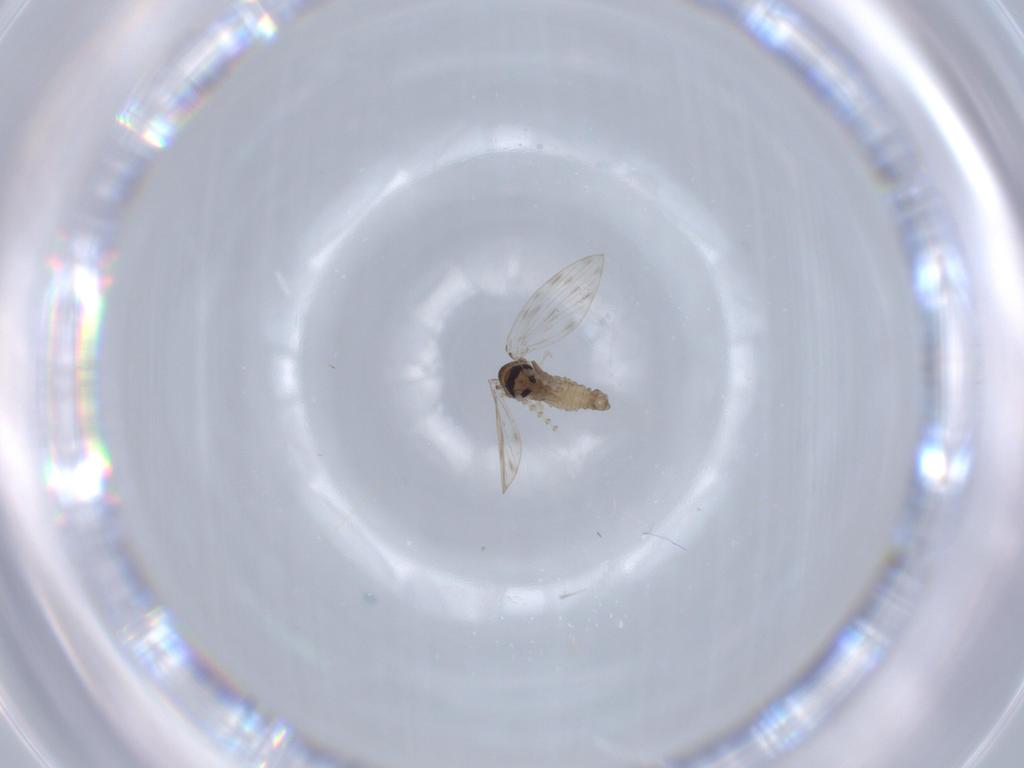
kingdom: Animalia
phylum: Arthropoda
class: Insecta
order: Diptera
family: Psychodidae
